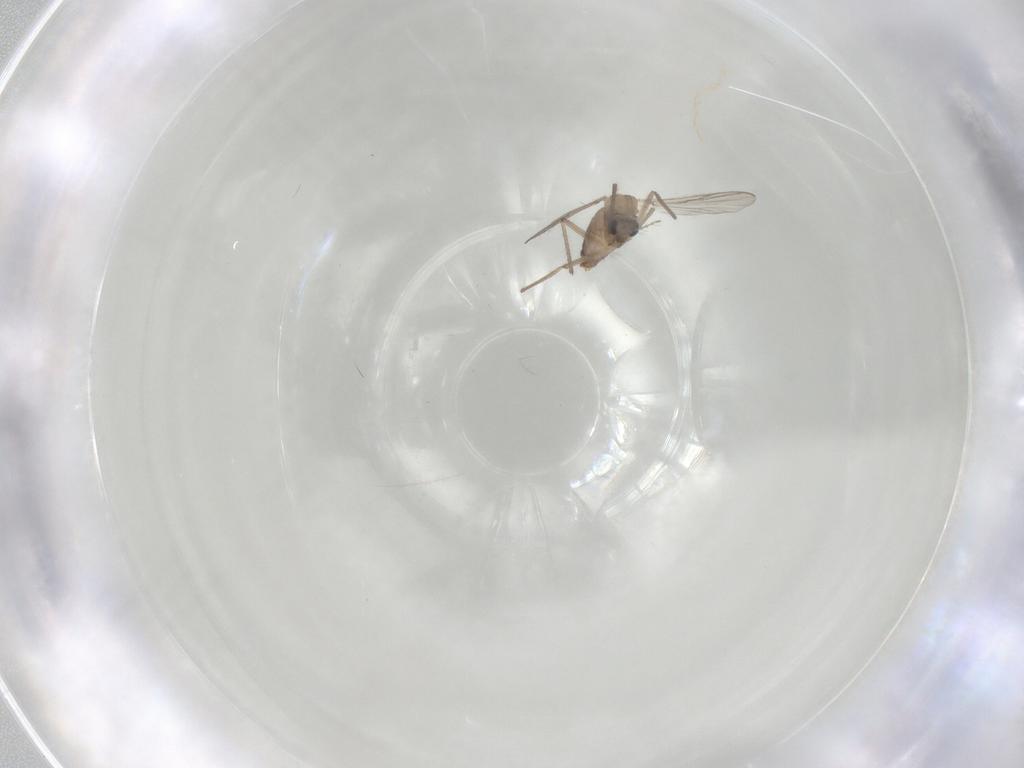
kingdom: Animalia
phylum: Arthropoda
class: Insecta
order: Diptera
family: Chironomidae
